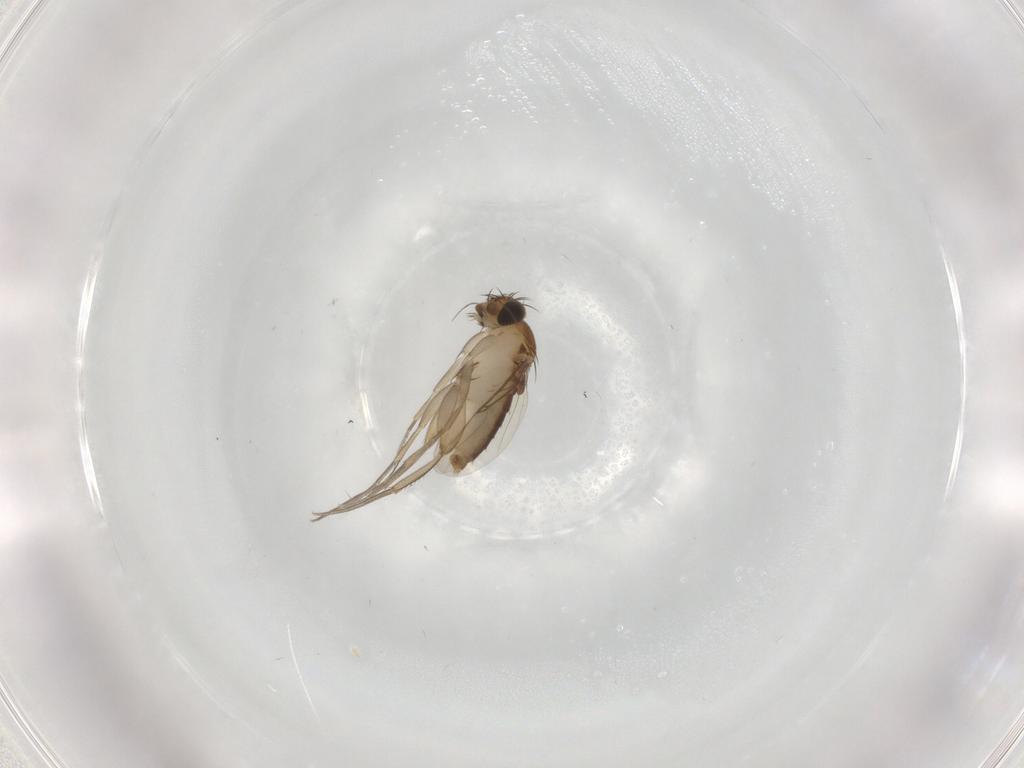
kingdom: Animalia
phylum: Arthropoda
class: Insecta
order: Diptera
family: Phoridae
